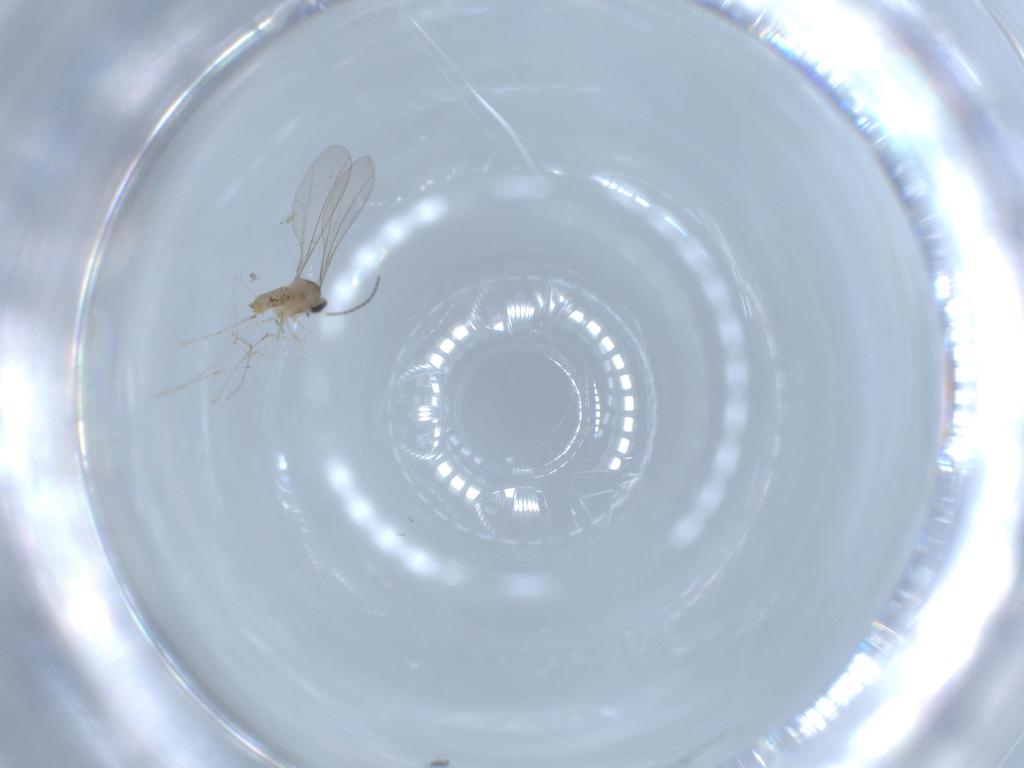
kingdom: Animalia
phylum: Arthropoda
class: Insecta
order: Diptera
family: Cecidomyiidae
